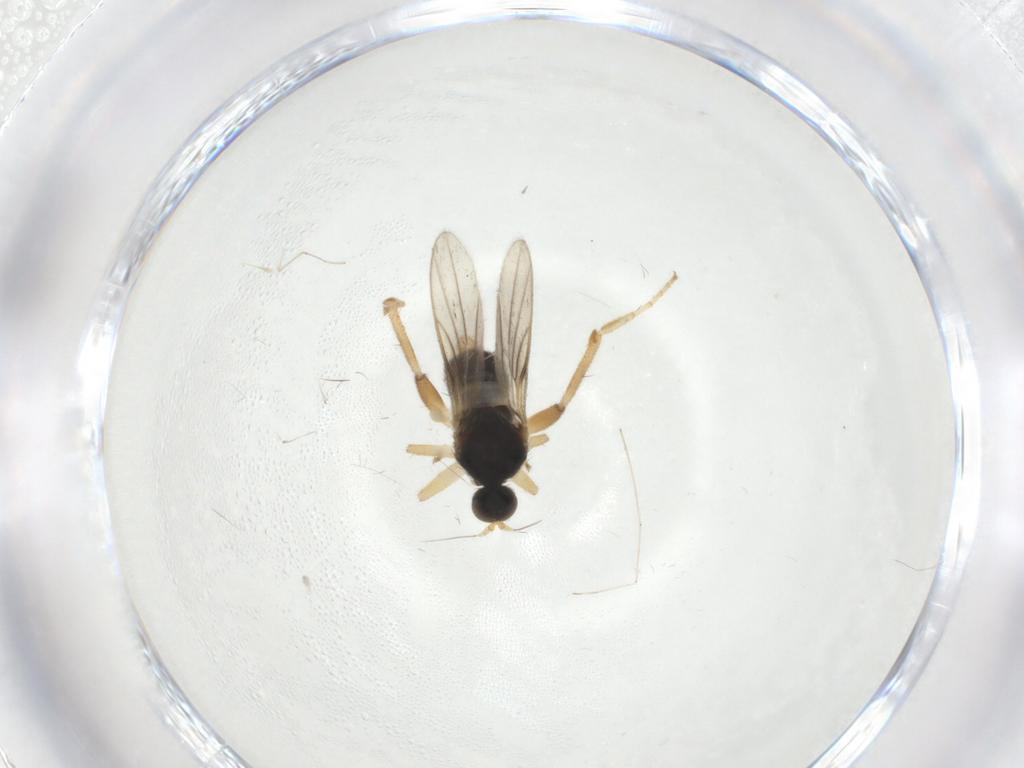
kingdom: Animalia
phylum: Arthropoda
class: Insecta
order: Diptera
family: Hybotidae
